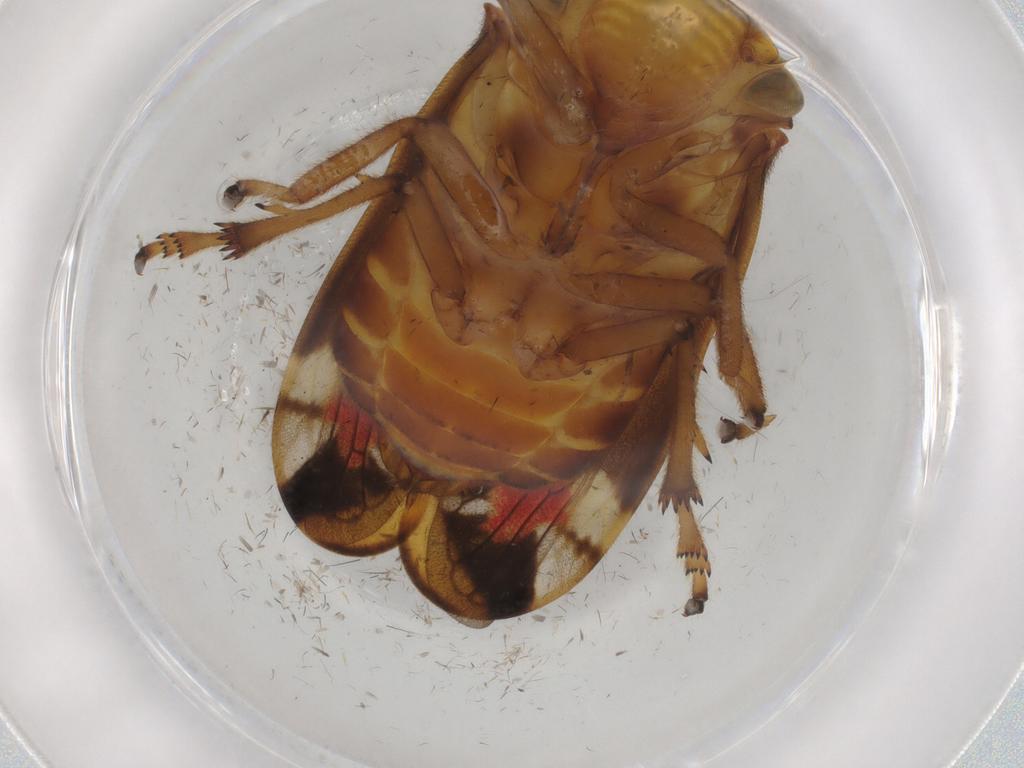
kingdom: Animalia
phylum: Arthropoda
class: Insecta
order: Hemiptera
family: Cercopidae
